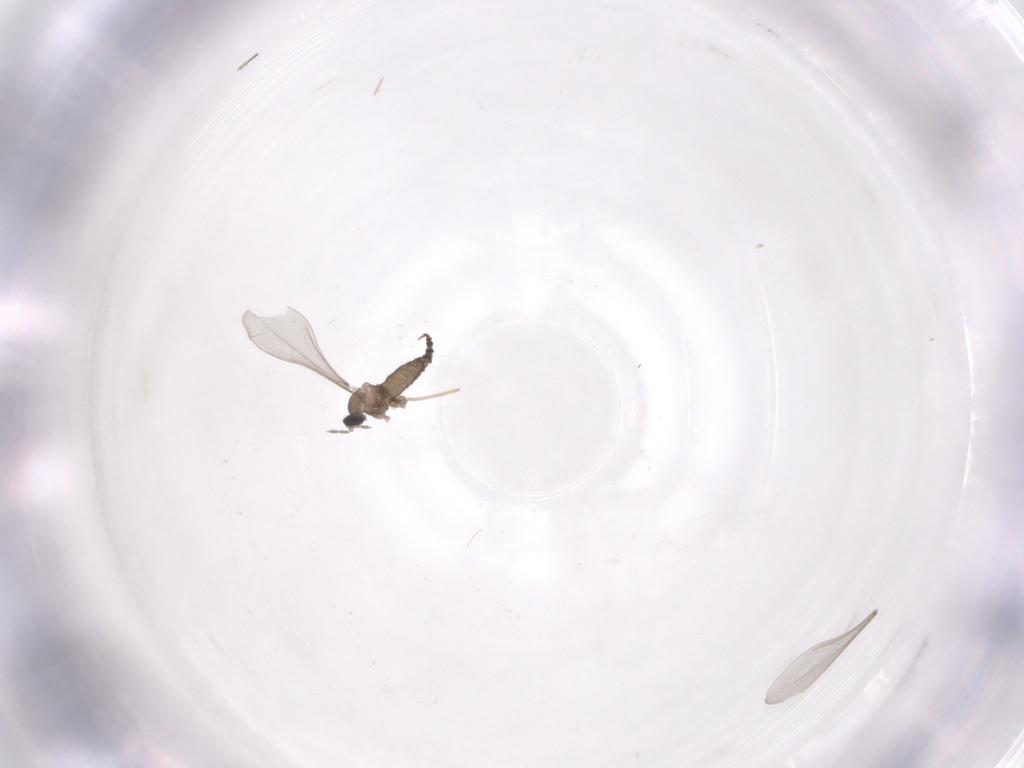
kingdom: Animalia
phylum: Arthropoda
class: Insecta
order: Diptera
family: Cecidomyiidae
